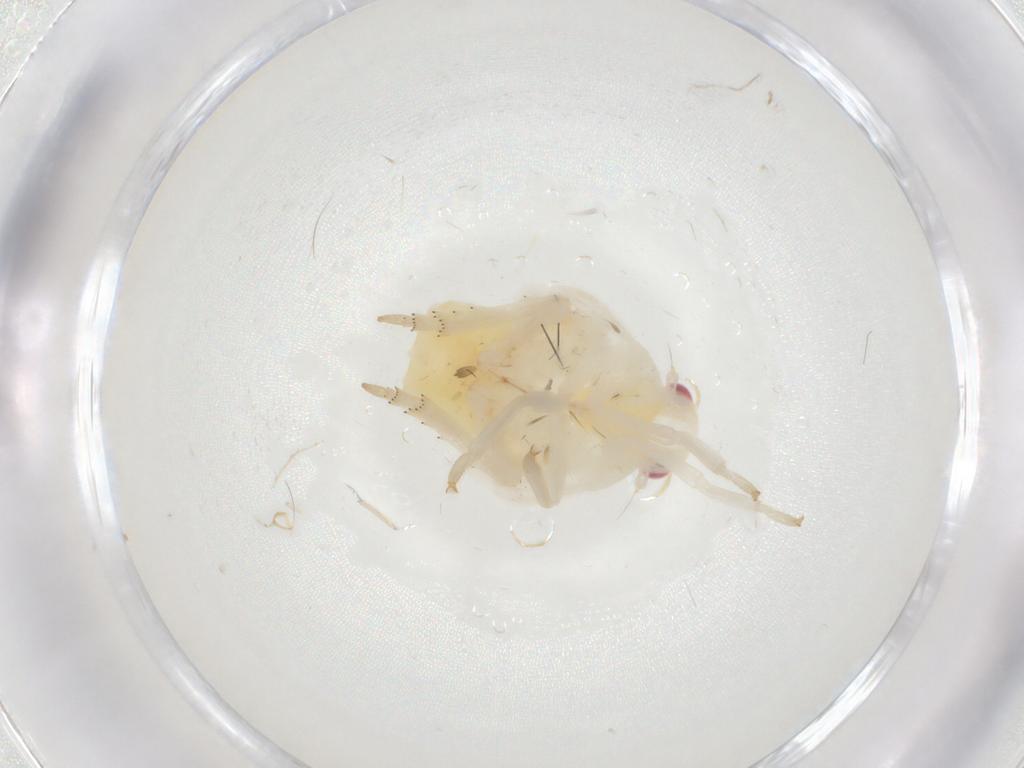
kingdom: Animalia
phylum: Arthropoda
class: Insecta
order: Hemiptera
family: Flatidae
